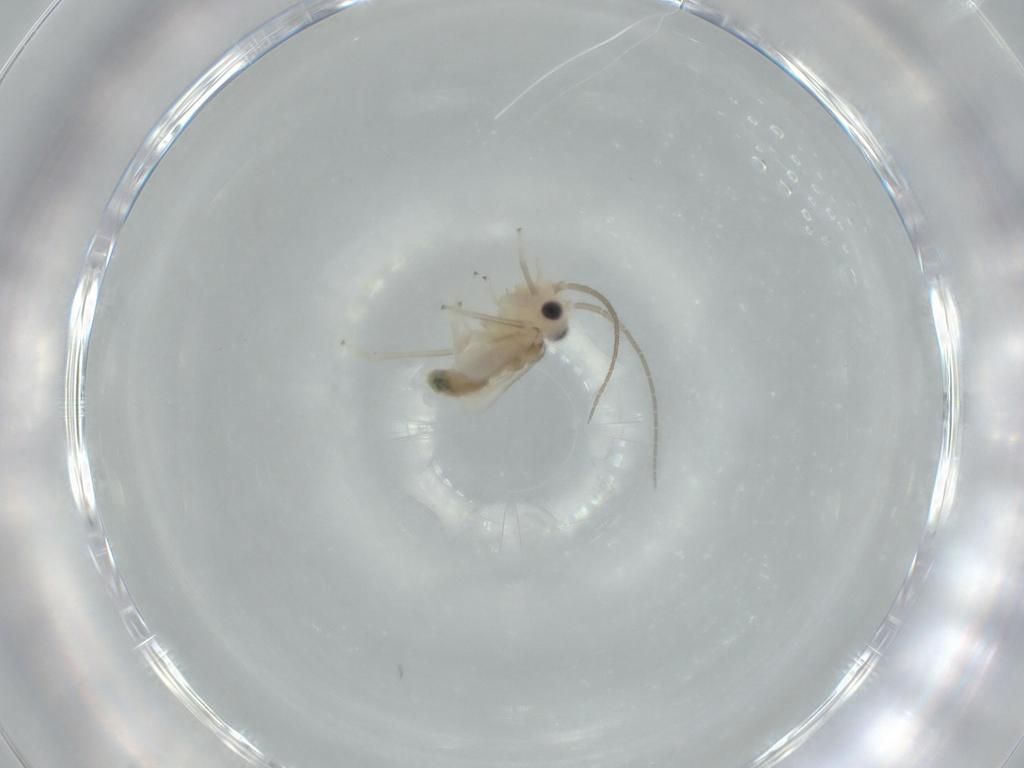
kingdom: Animalia
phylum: Arthropoda
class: Insecta
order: Psocodea
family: Caeciliusidae
